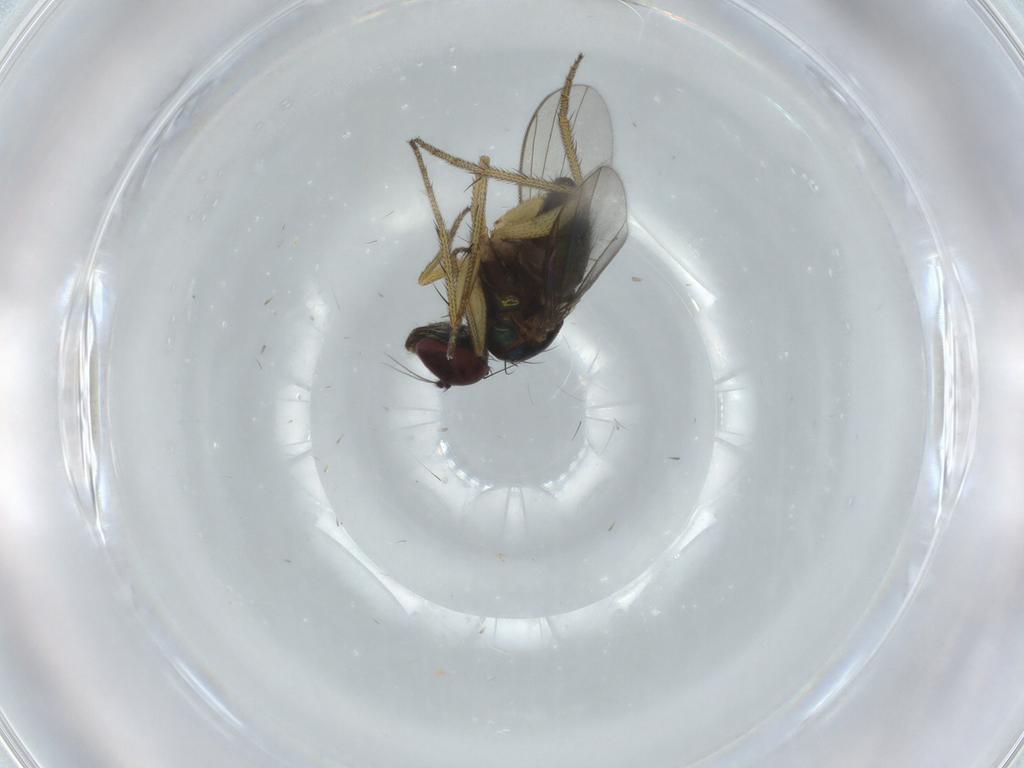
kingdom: Animalia
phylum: Arthropoda
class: Insecta
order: Diptera
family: Dolichopodidae
